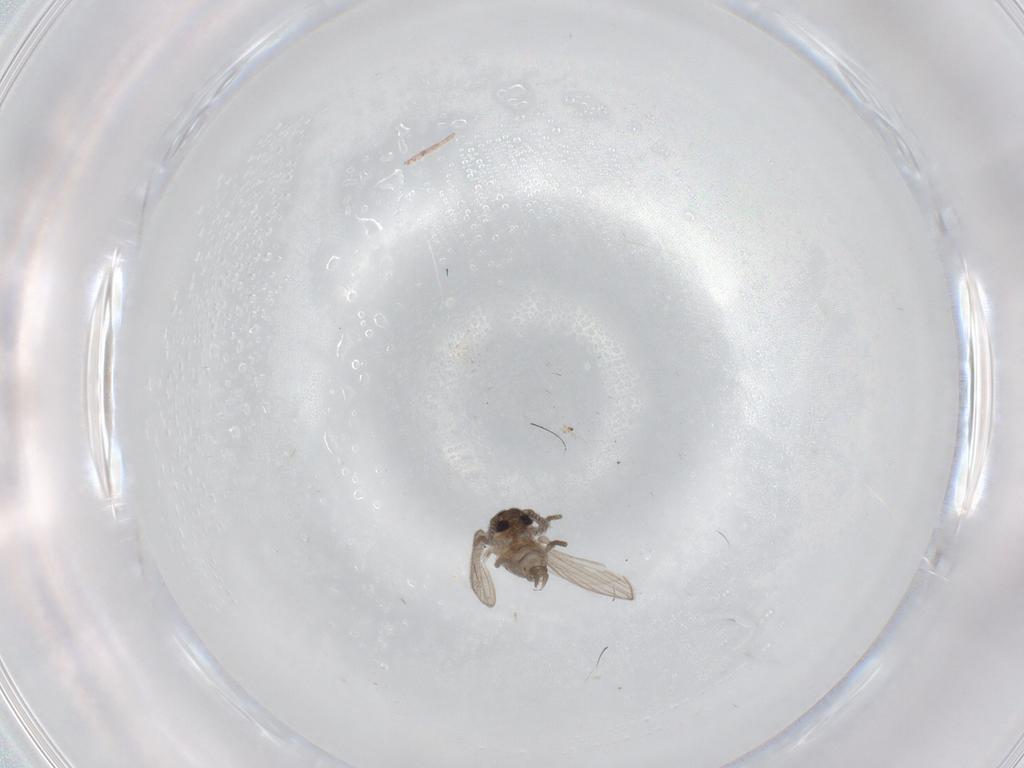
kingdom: Animalia
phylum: Arthropoda
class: Insecta
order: Diptera
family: Psychodidae
